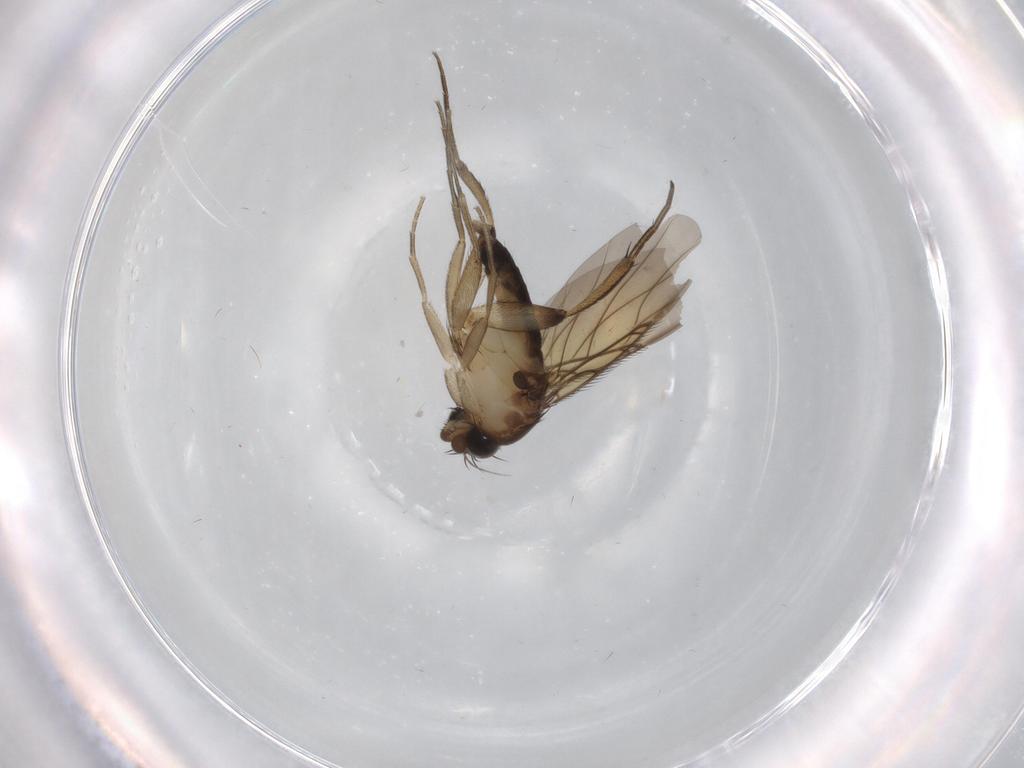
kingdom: Animalia
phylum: Arthropoda
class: Insecta
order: Diptera
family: Phoridae
